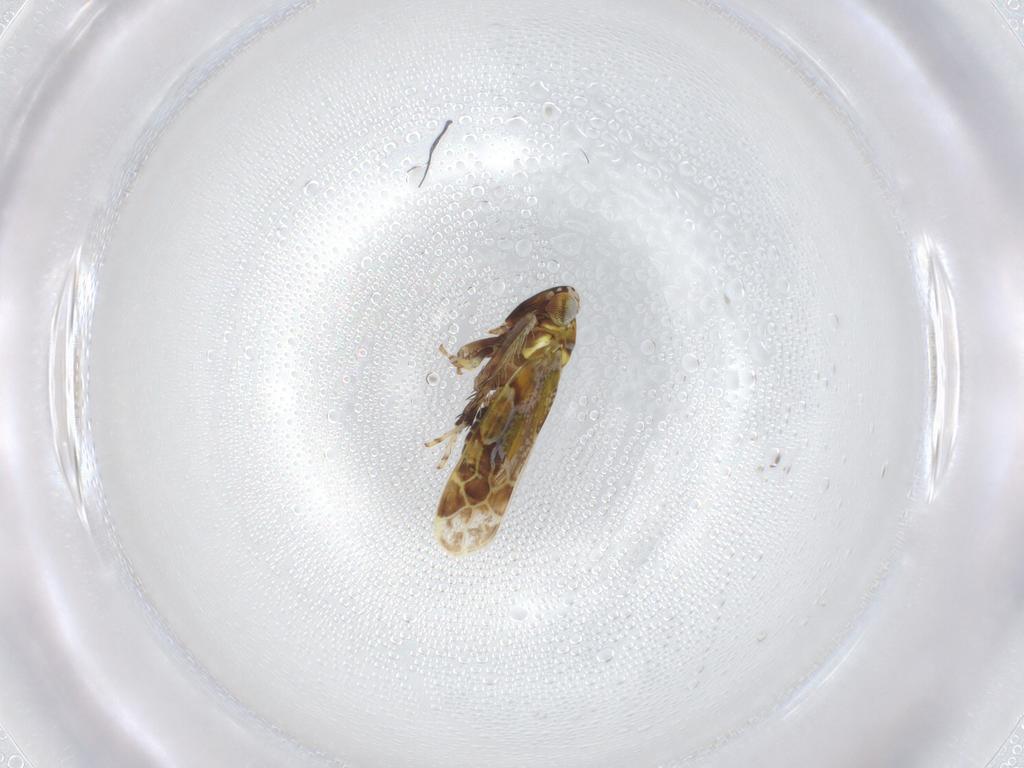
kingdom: Animalia
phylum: Arthropoda
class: Insecta
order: Hemiptera
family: Cicadellidae
